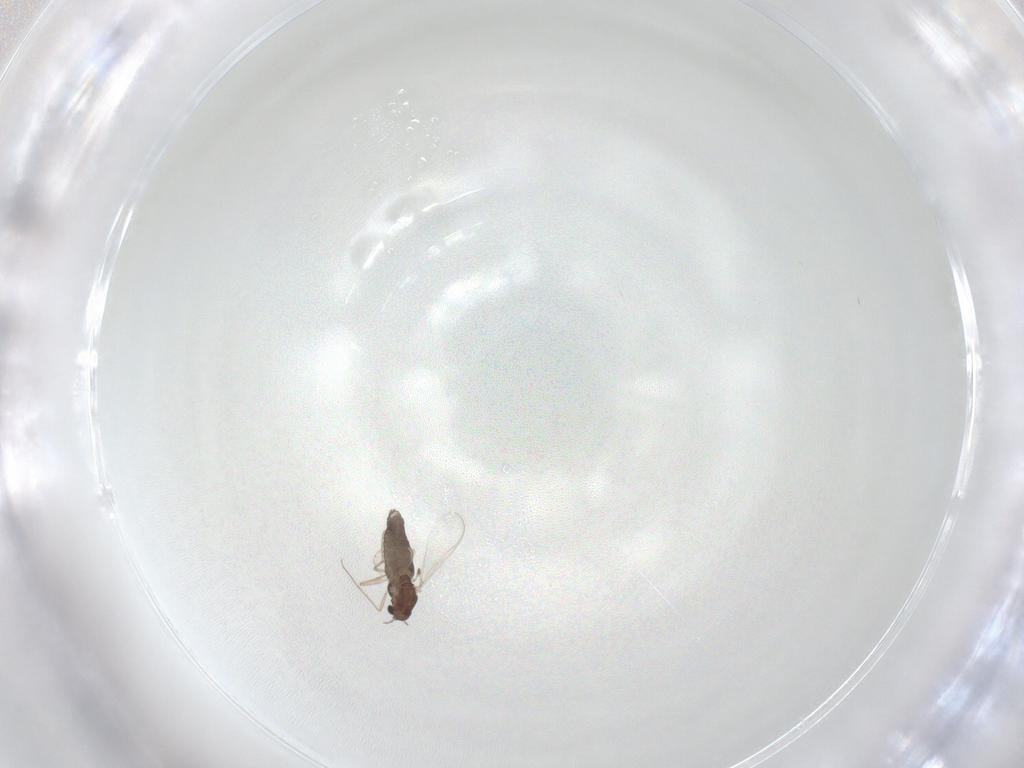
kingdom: Animalia
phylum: Arthropoda
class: Insecta
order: Diptera
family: Chironomidae
